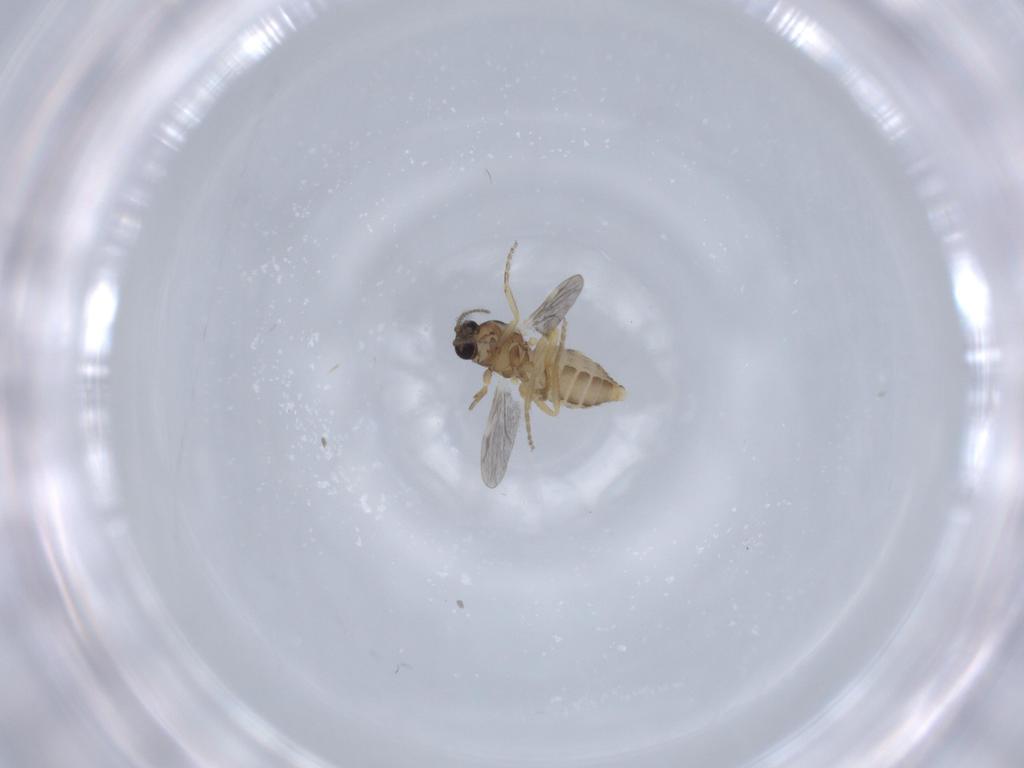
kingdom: Animalia
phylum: Arthropoda
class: Insecta
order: Diptera
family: Ceratopogonidae
